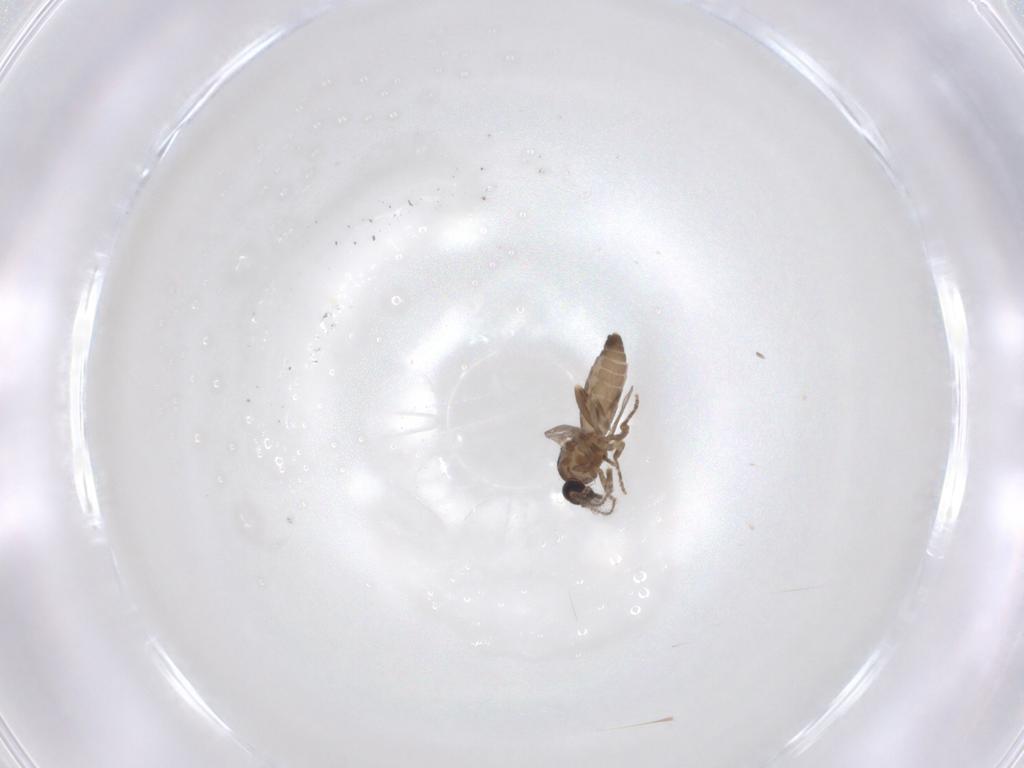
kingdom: Animalia
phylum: Arthropoda
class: Insecta
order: Diptera
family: Ceratopogonidae
